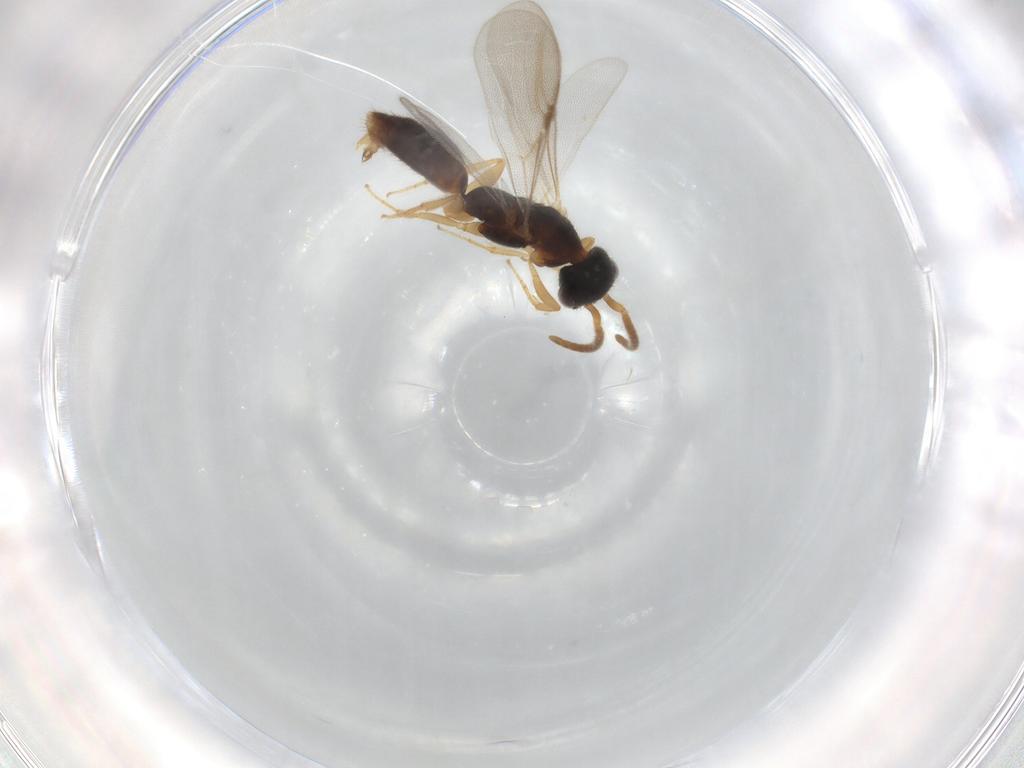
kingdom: Animalia
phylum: Arthropoda
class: Insecta
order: Hymenoptera
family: Bethylidae
